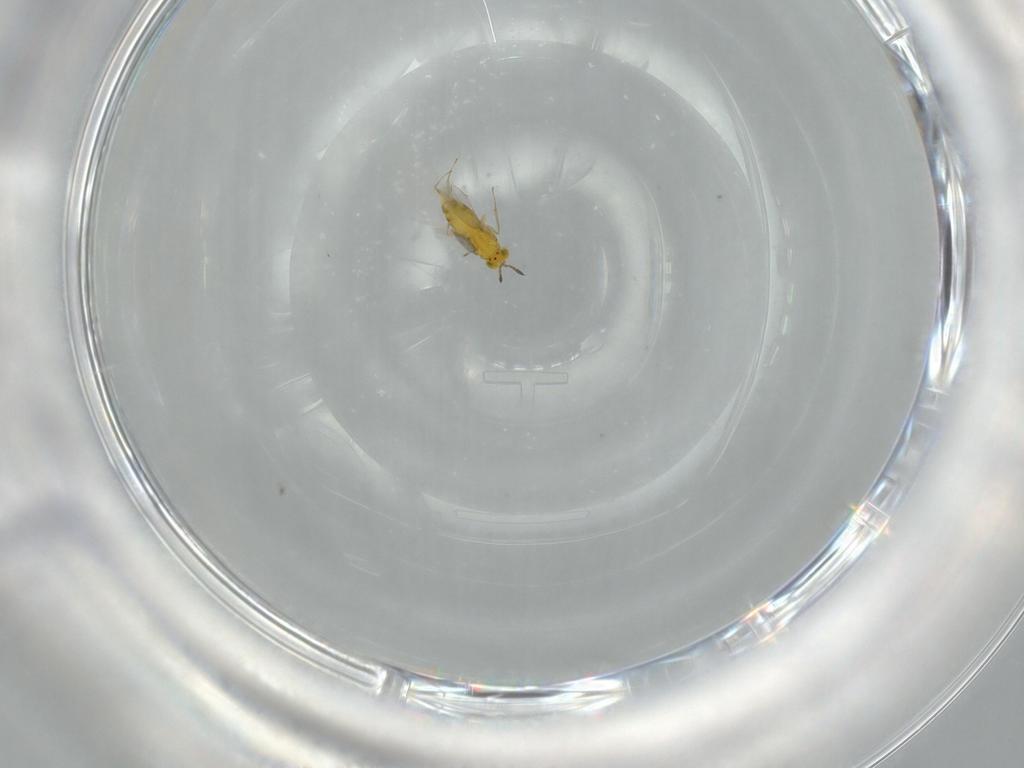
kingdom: Animalia
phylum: Arthropoda
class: Insecta
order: Hymenoptera
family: Aphelinidae
